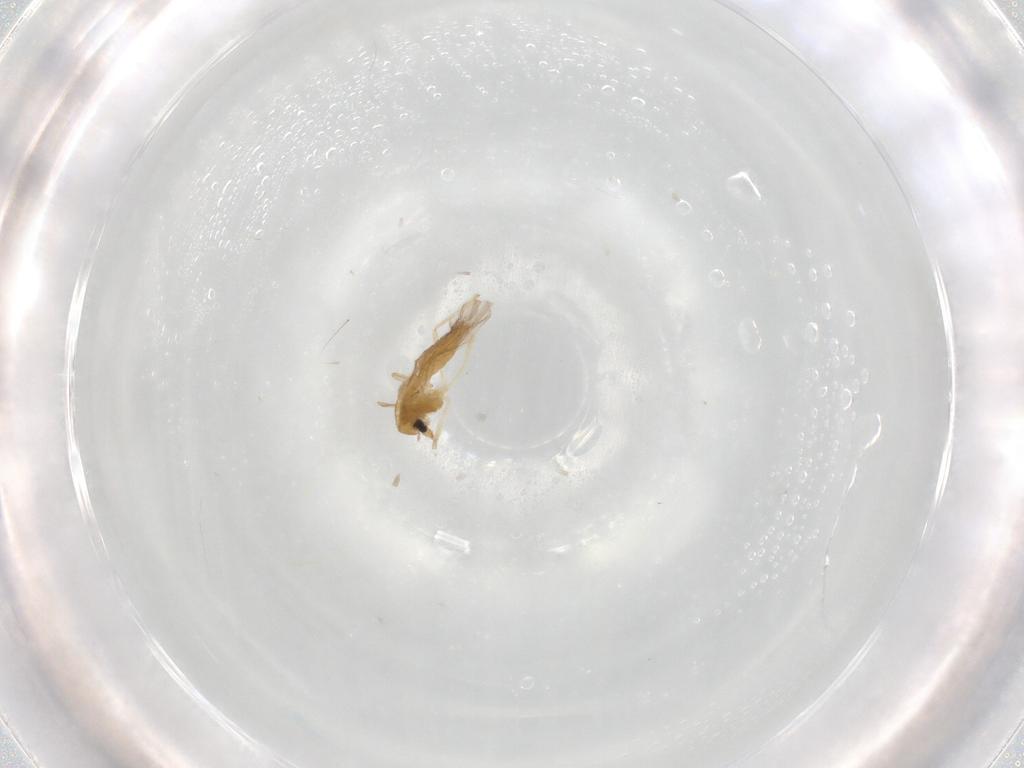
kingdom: Animalia
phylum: Arthropoda
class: Insecta
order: Diptera
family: Chironomidae
